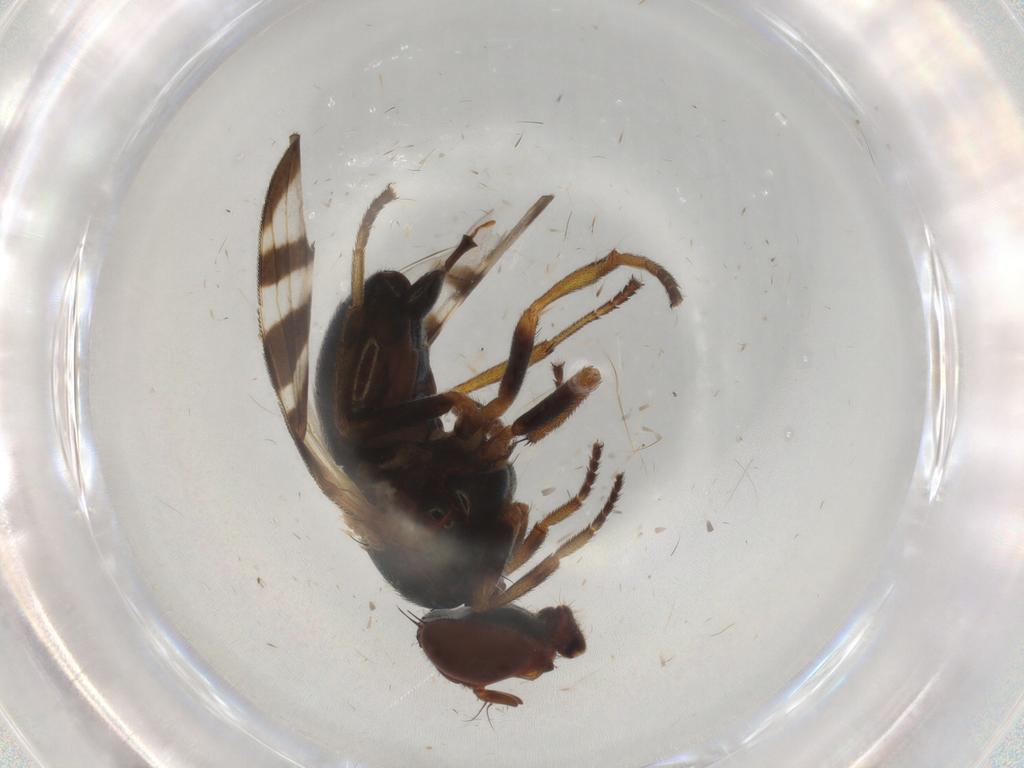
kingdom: Animalia
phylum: Arthropoda
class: Insecta
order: Diptera
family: Platystomatidae
